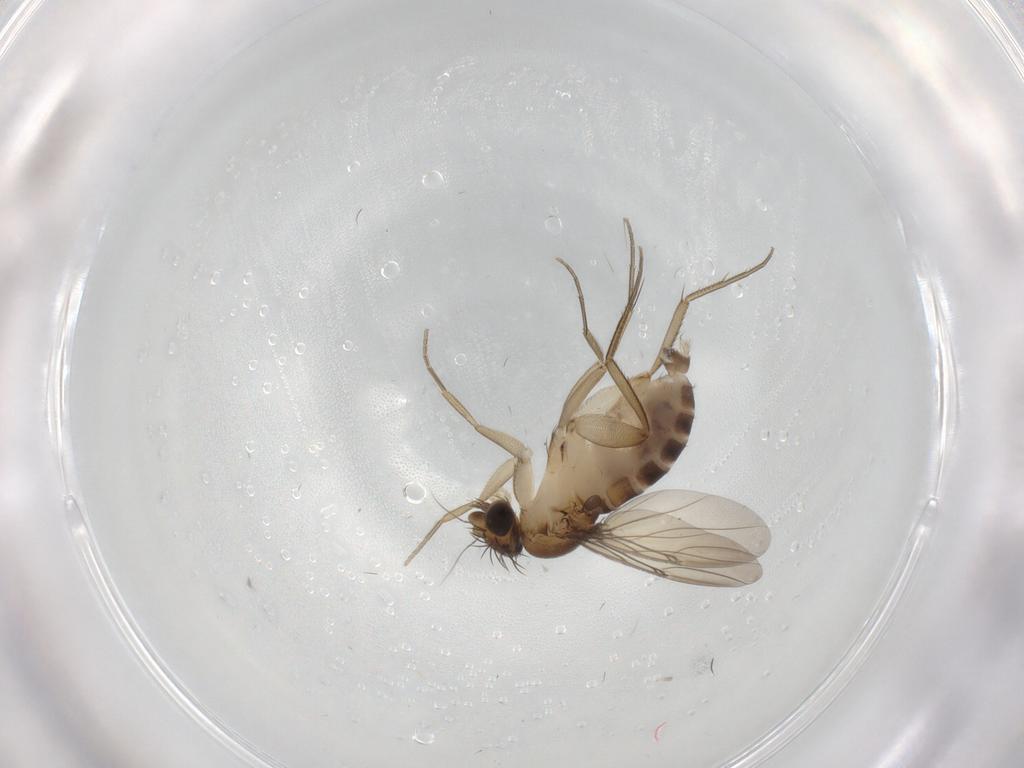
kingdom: Animalia
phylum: Arthropoda
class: Insecta
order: Diptera
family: Phoridae
